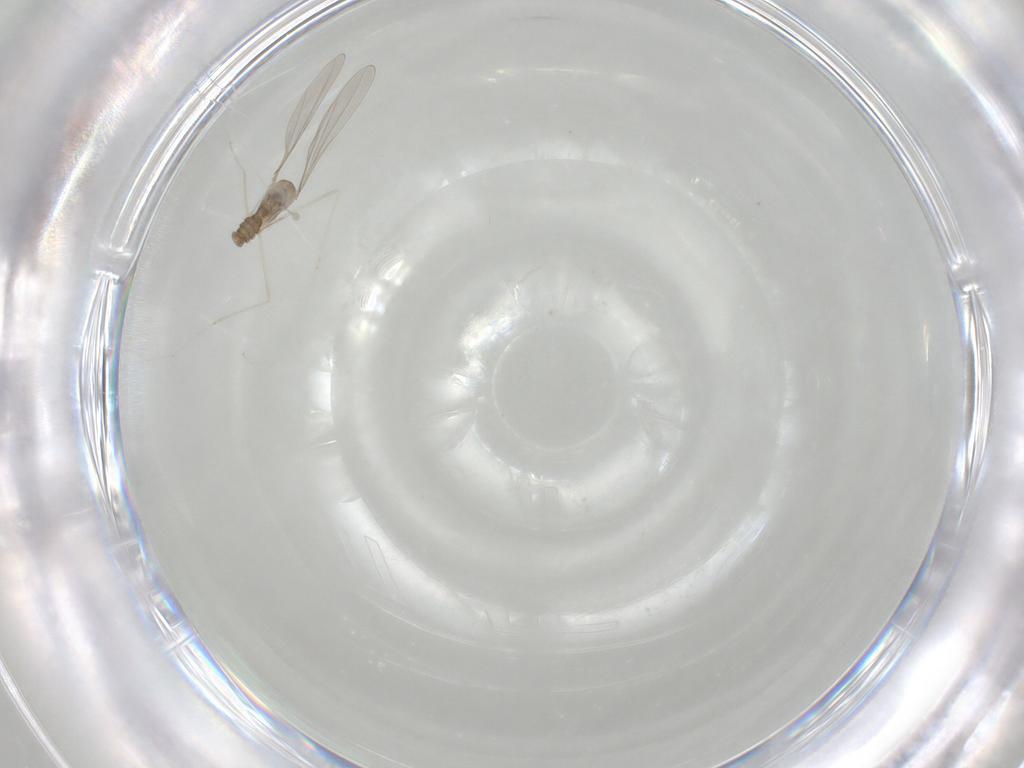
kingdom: Animalia
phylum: Arthropoda
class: Insecta
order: Diptera
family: Cecidomyiidae
